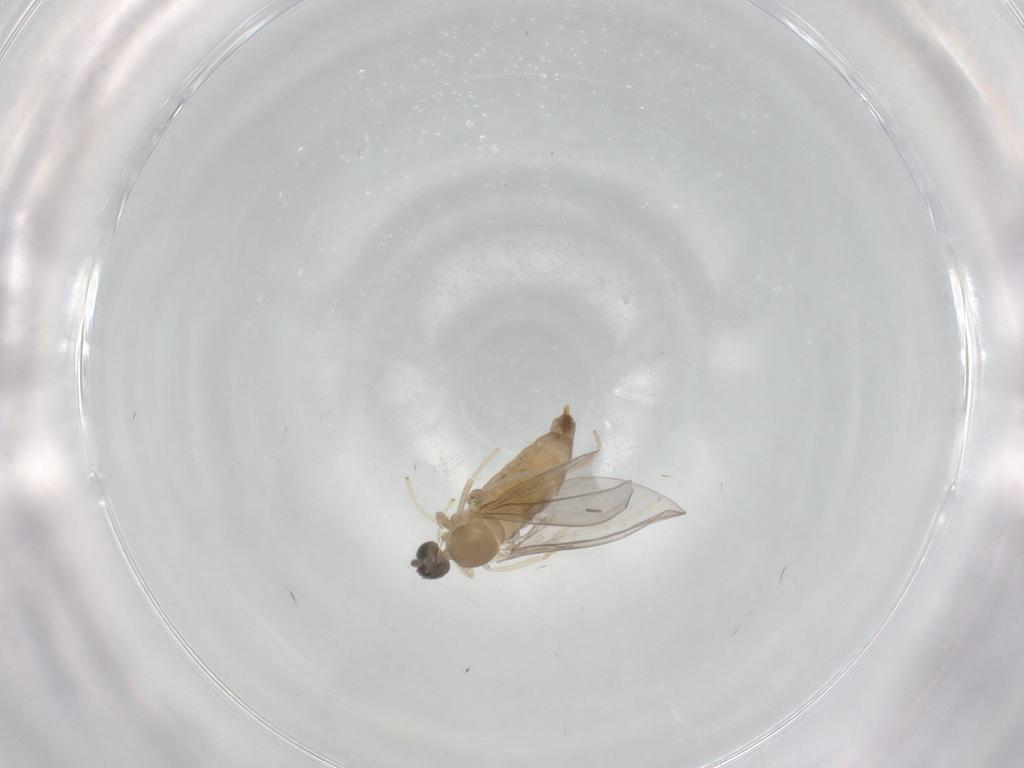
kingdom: Animalia
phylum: Arthropoda
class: Insecta
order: Diptera
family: Cecidomyiidae
